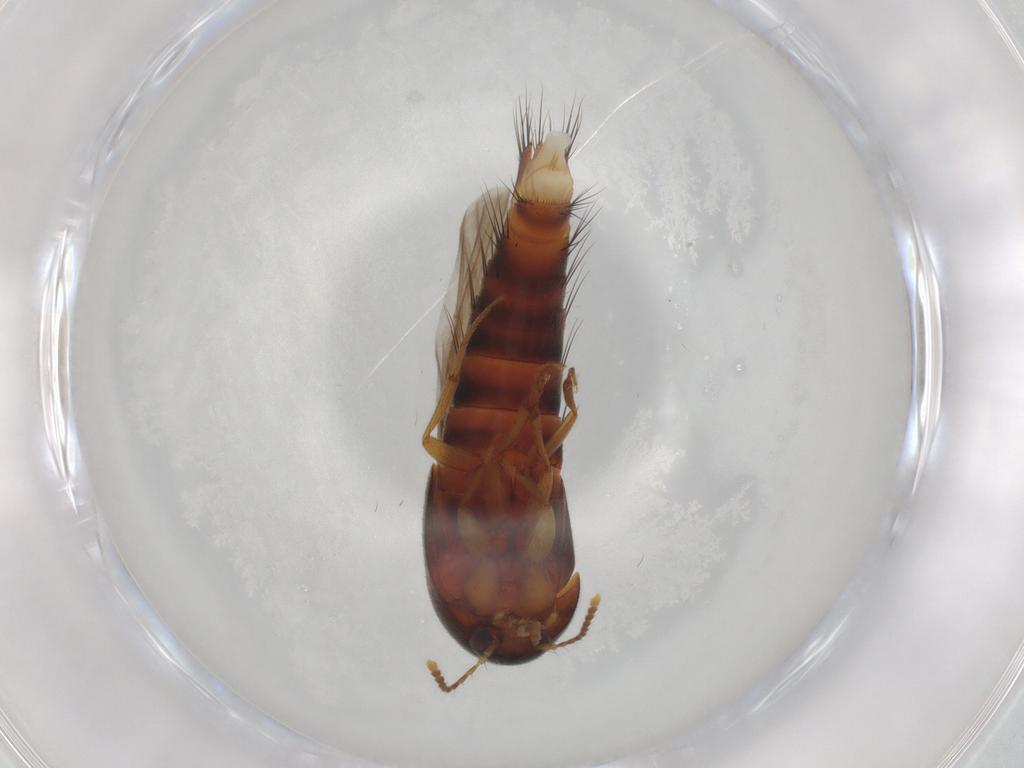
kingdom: Animalia
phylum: Arthropoda
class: Insecta
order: Coleoptera
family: Staphylinidae
